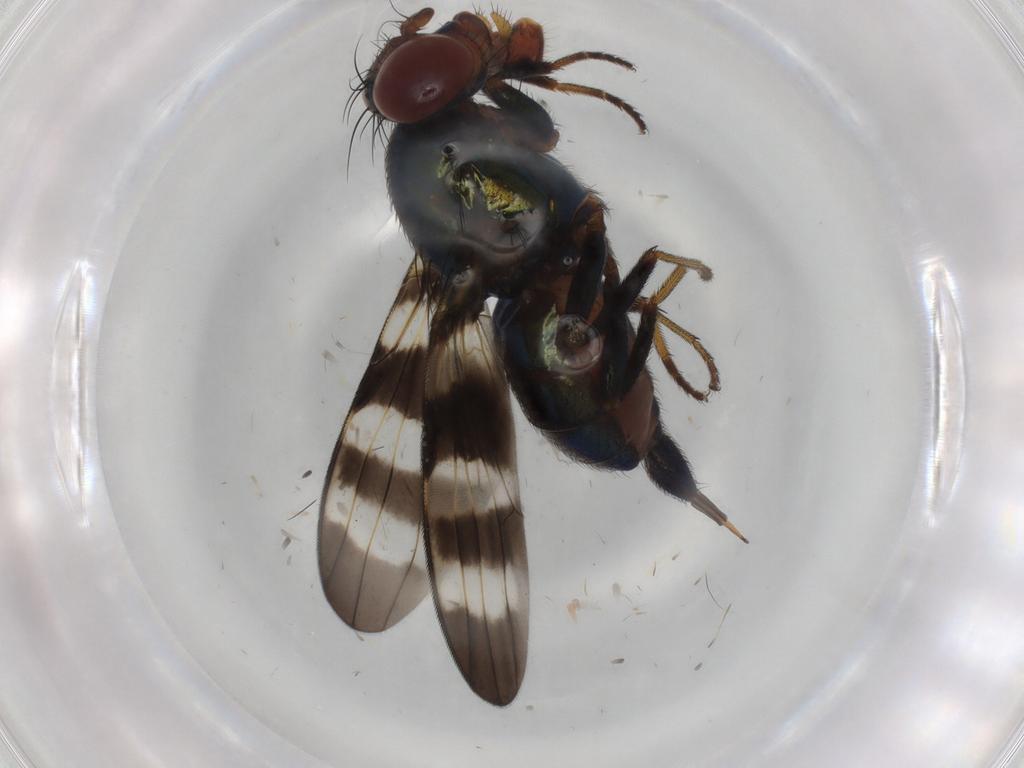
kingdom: Animalia
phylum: Arthropoda
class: Insecta
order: Diptera
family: Ulidiidae
